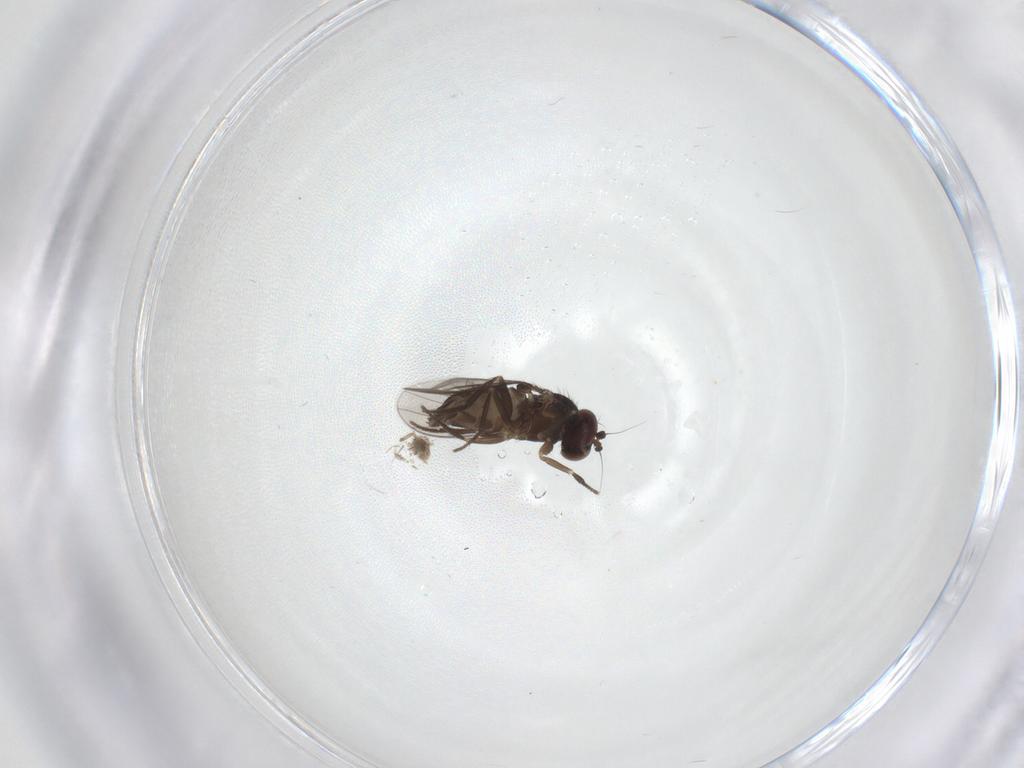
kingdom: Animalia
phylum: Arthropoda
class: Insecta
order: Diptera
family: Dolichopodidae
